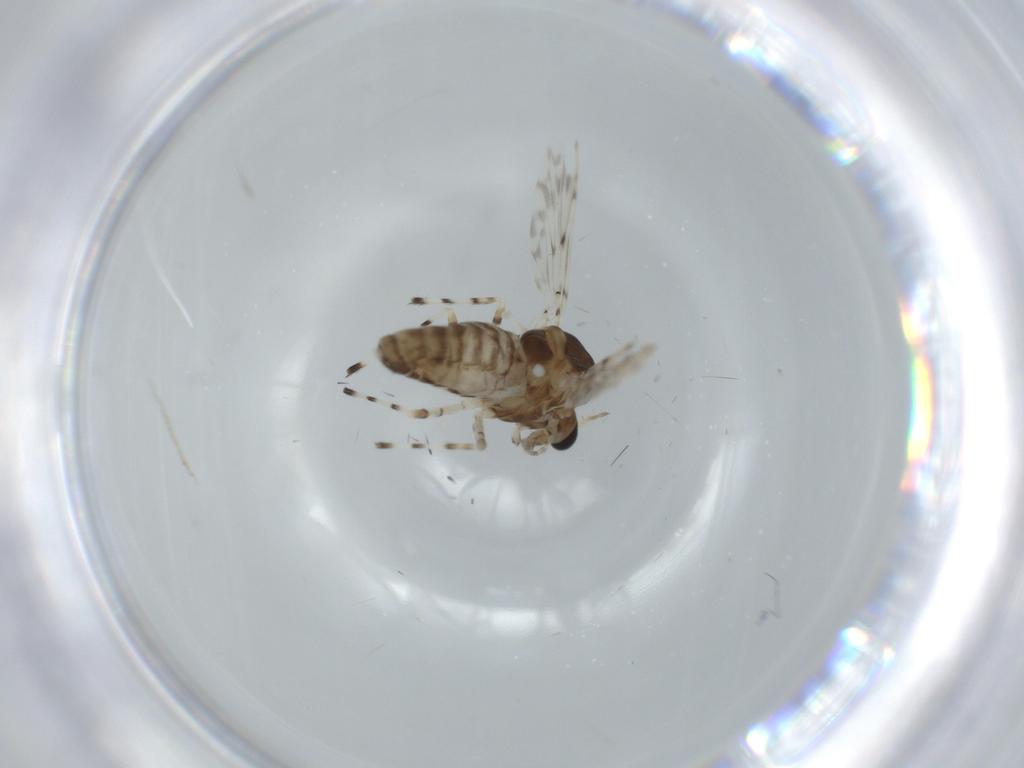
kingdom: Animalia
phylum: Arthropoda
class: Insecta
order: Diptera
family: Chironomidae
